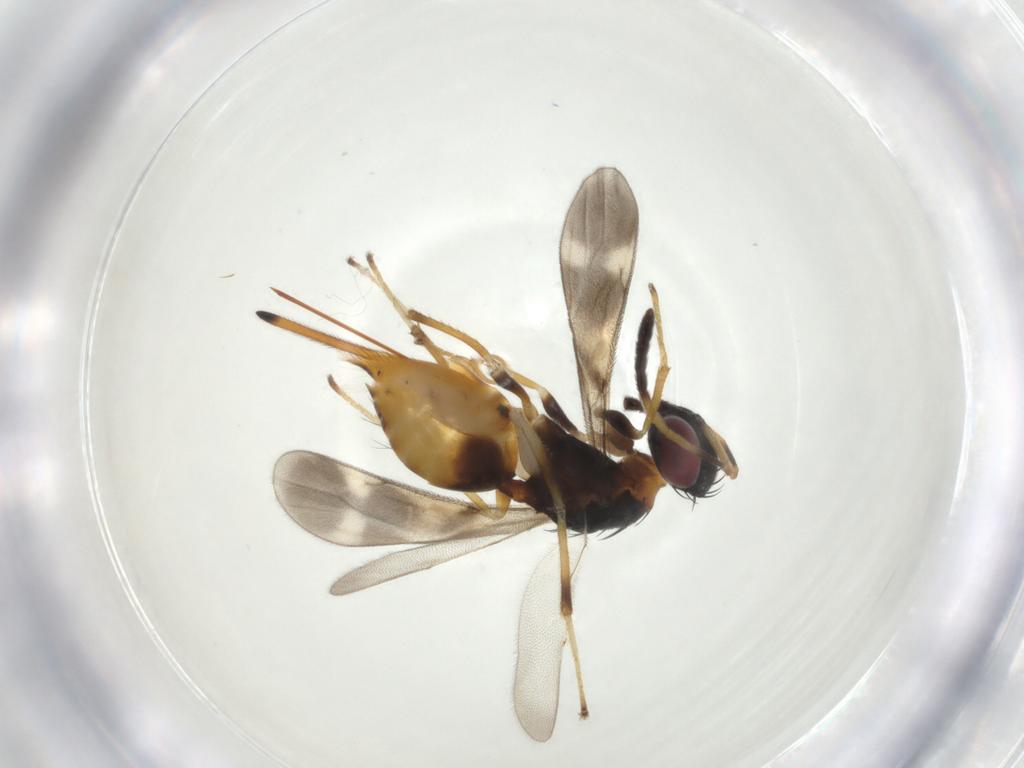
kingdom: Animalia
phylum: Arthropoda
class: Insecta
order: Hymenoptera
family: Diparidae
